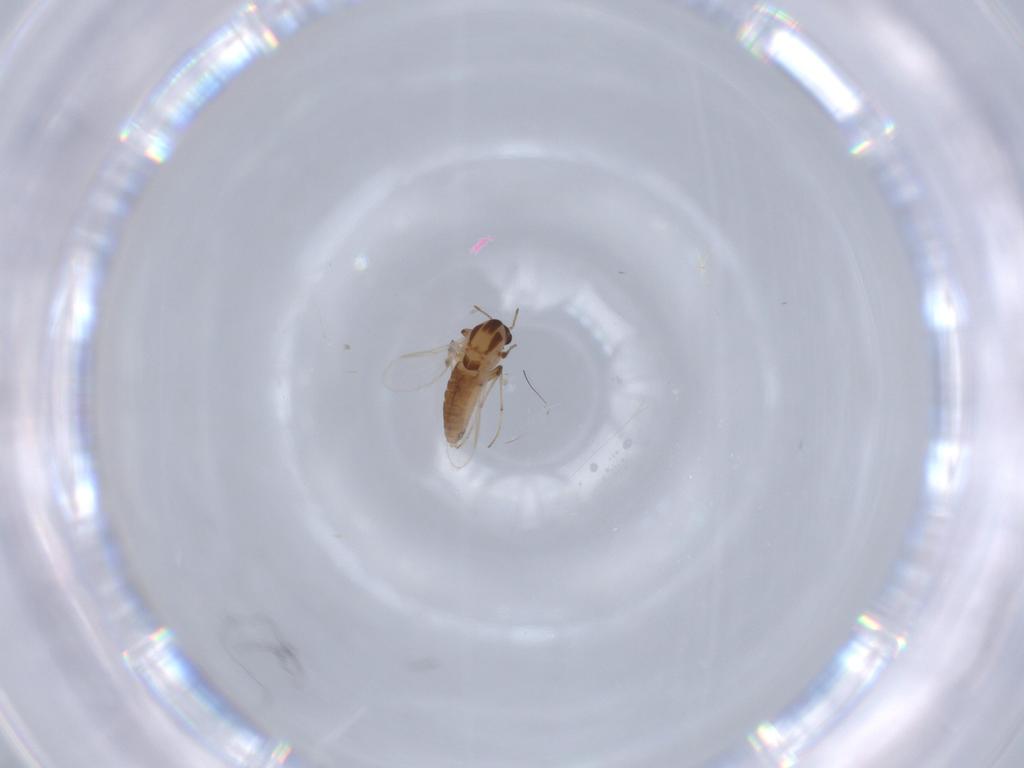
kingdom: Animalia
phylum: Arthropoda
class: Insecta
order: Diptera
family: Chironomidae
